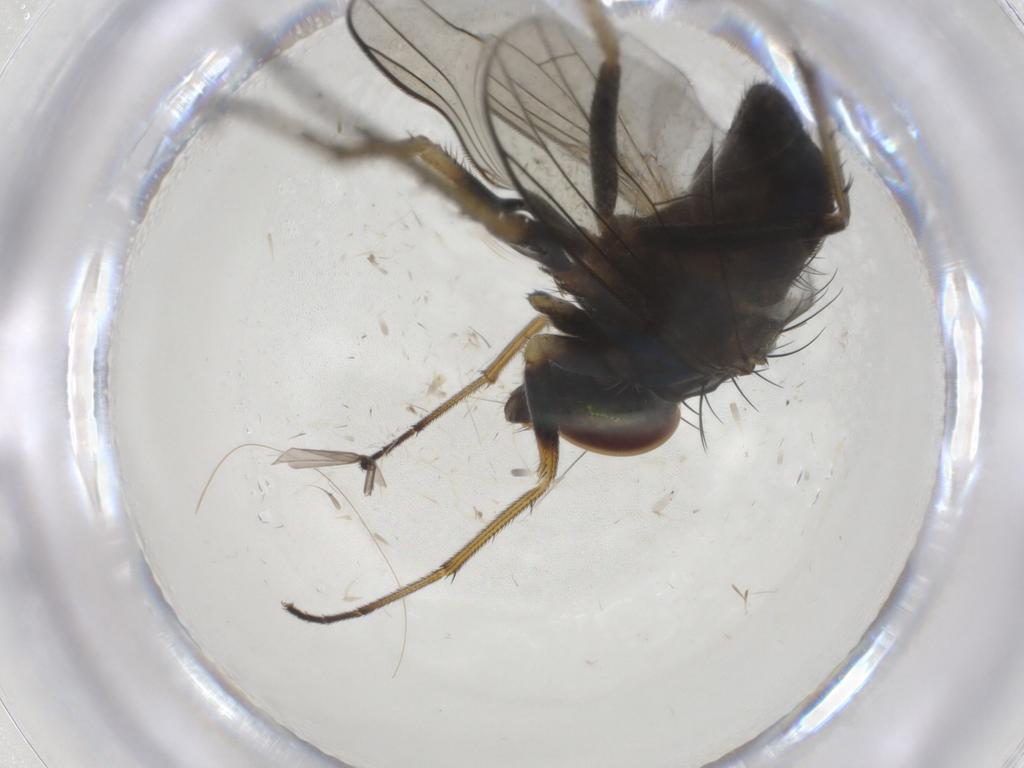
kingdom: Animalia
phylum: Arthropoda
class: Insecta
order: Diptera
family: Dolichopodidae
